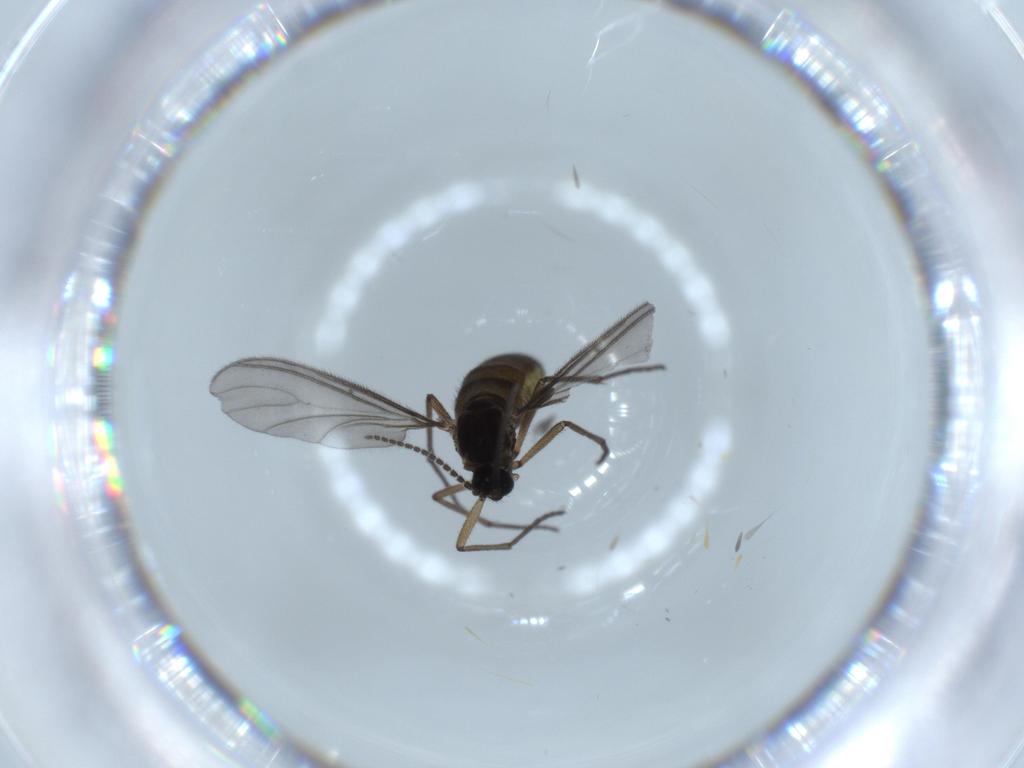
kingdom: Animalia
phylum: Arthropoda
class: Insecta
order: Diptera
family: Sciaridae
